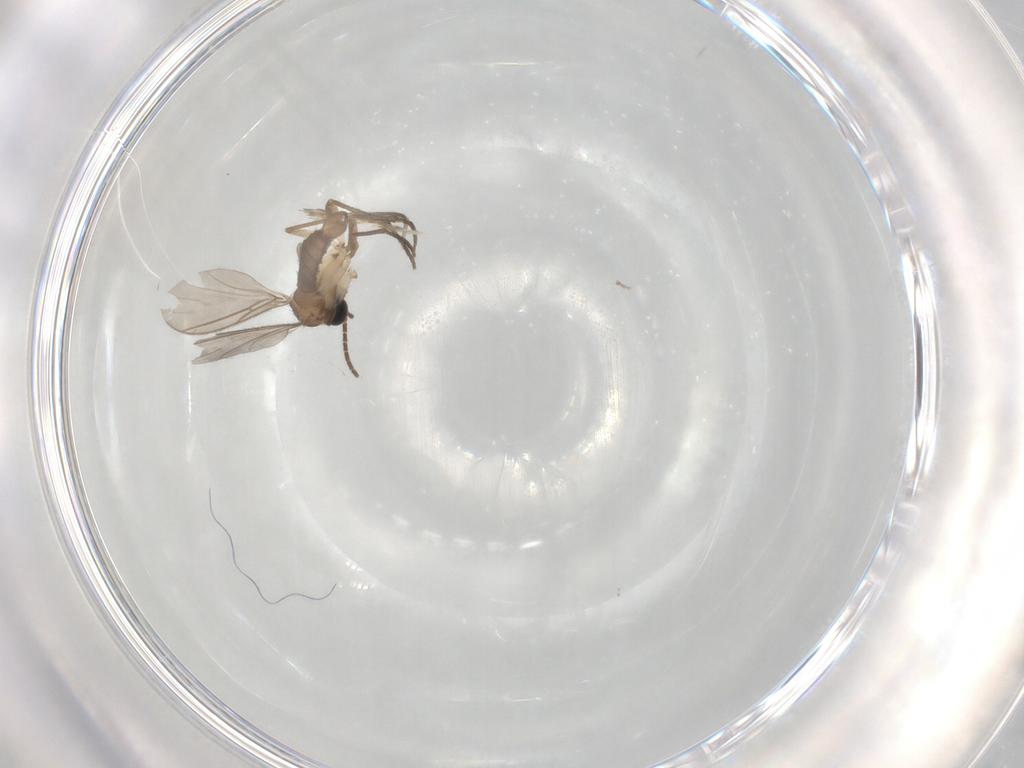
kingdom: Animalia
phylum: Arthropoda
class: Insecta
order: Diptera
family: Sciaridae
